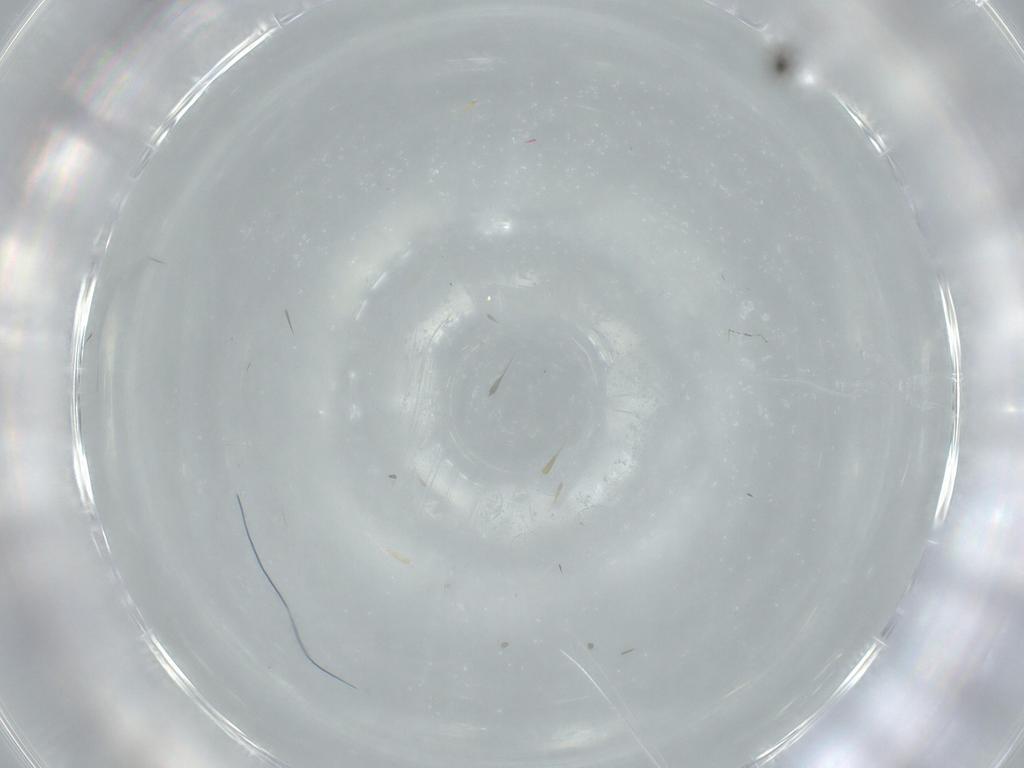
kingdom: Animalia
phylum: Arthropoda
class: Insecta
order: Diptera
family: Cecidomyiidae
